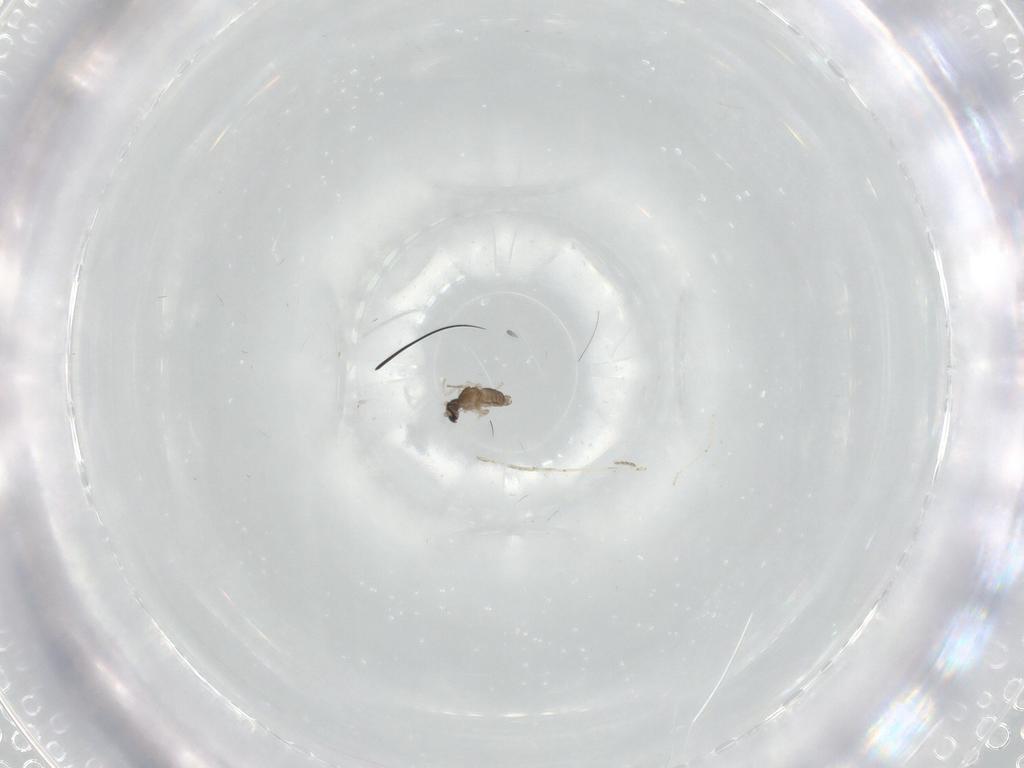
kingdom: Animalia
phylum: Arthropoda
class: Insecta
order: Diptera
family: Cecidomyiidae
